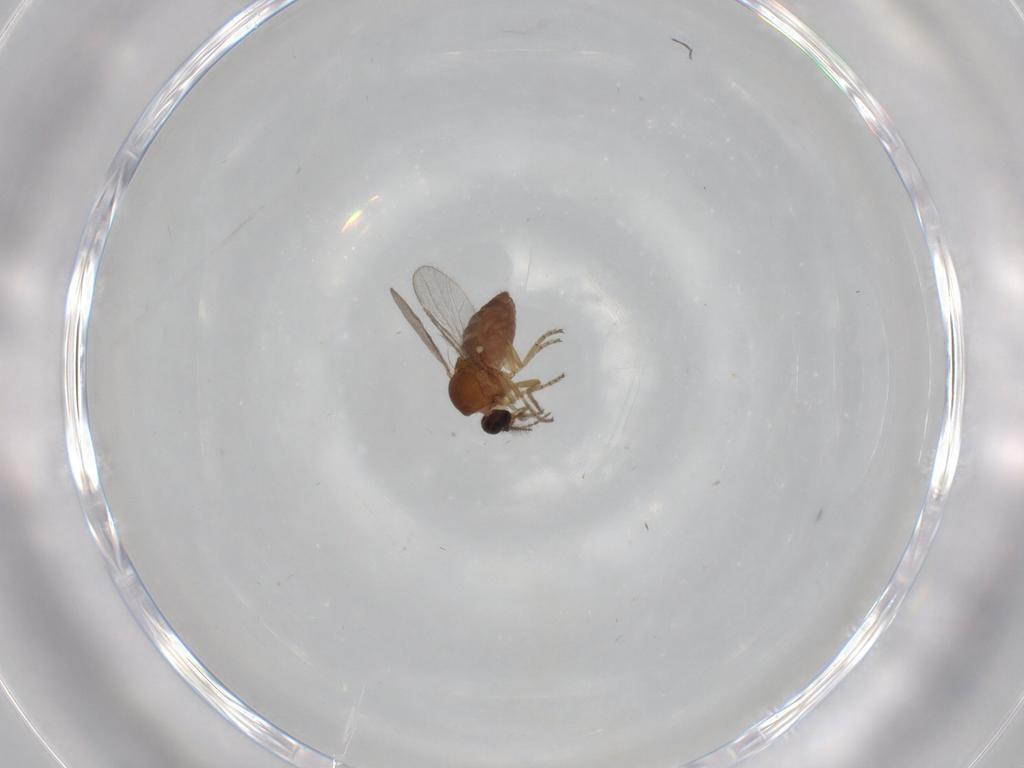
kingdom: Animalia
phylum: Arthropoda
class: Insecta
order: Diptera
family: Ceratopogonidae
